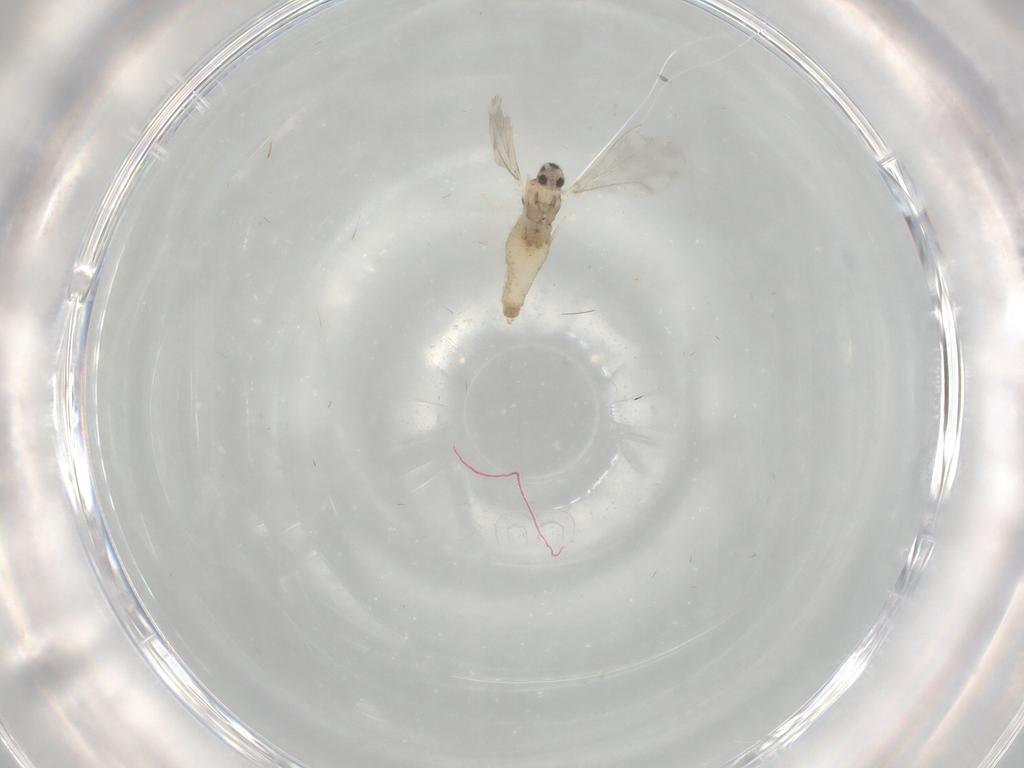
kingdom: Animalia
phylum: Arthropoda
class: Insecta
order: Diptera
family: Cecidomyiidae
